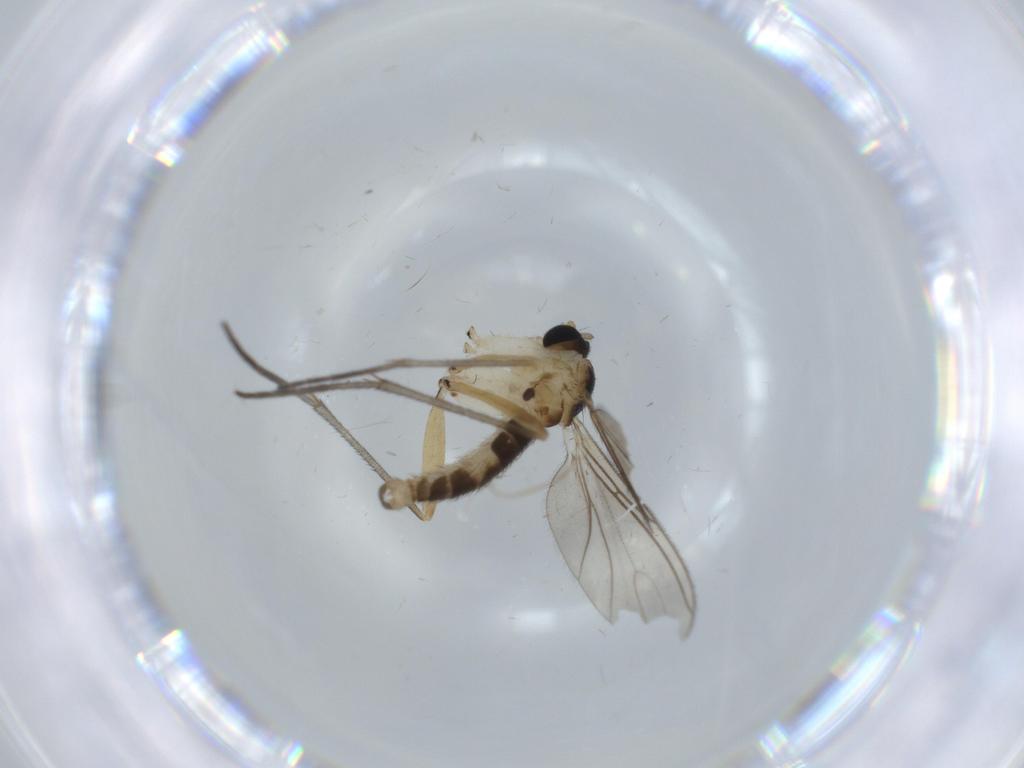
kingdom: Animalia
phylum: Arthropoda
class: Insecta
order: Diptera
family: Sciaridae
